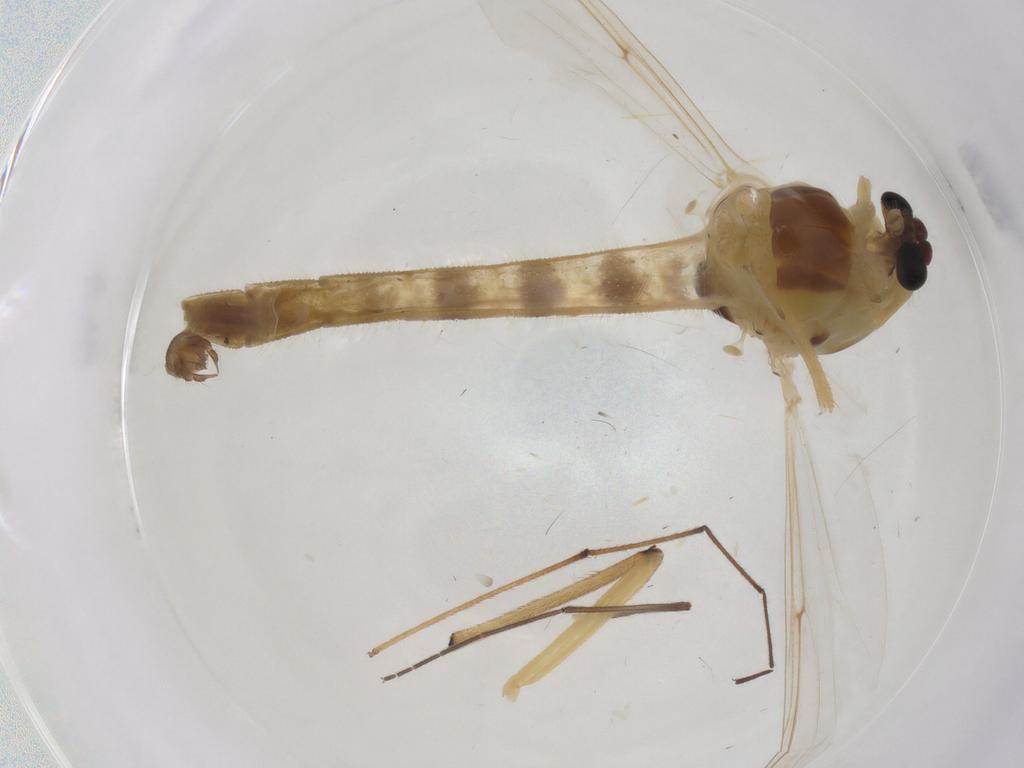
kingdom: Animalia
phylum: Arthropoda
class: Insecta
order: Diptera
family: Chironomidae
